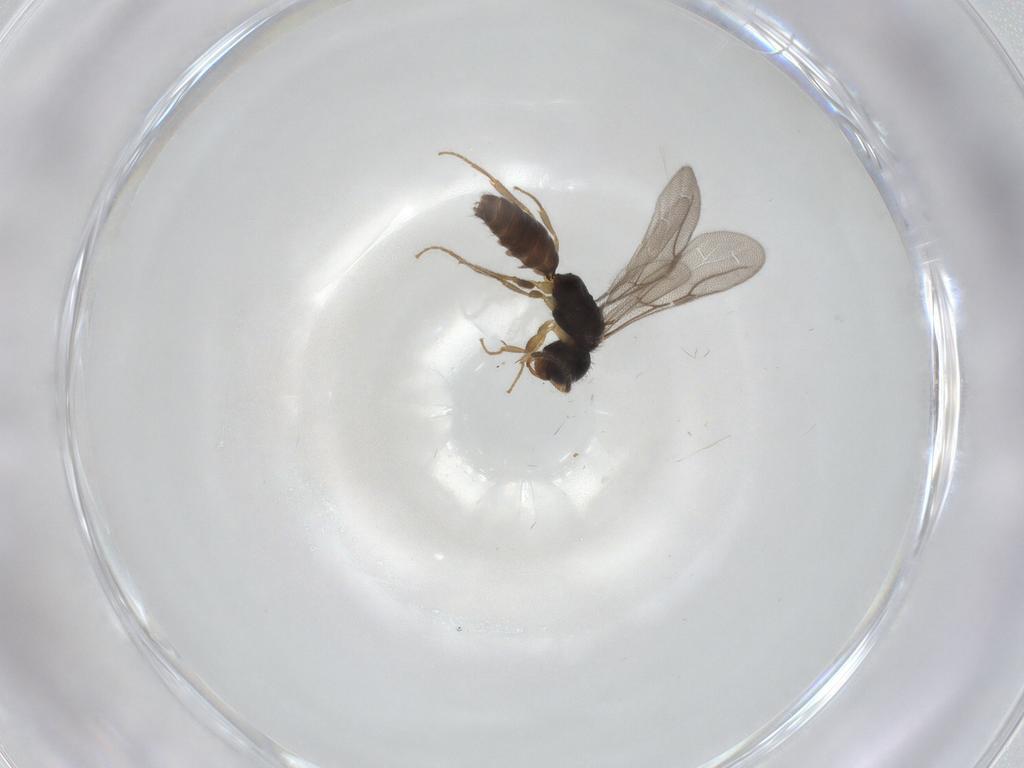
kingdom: Animalia
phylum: Arthropoda
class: Insecta
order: Hymenoptera
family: Bethylidae
